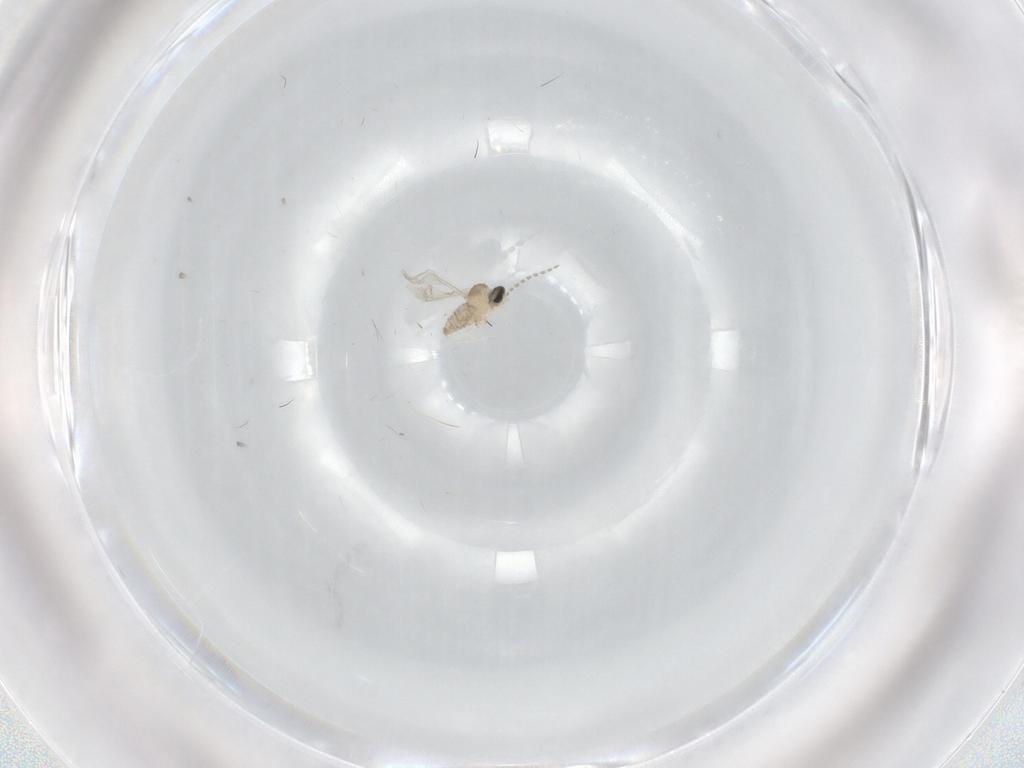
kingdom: Animalia
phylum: Arthropoda
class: Insecta
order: Diptera
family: Cecidomyiidae
